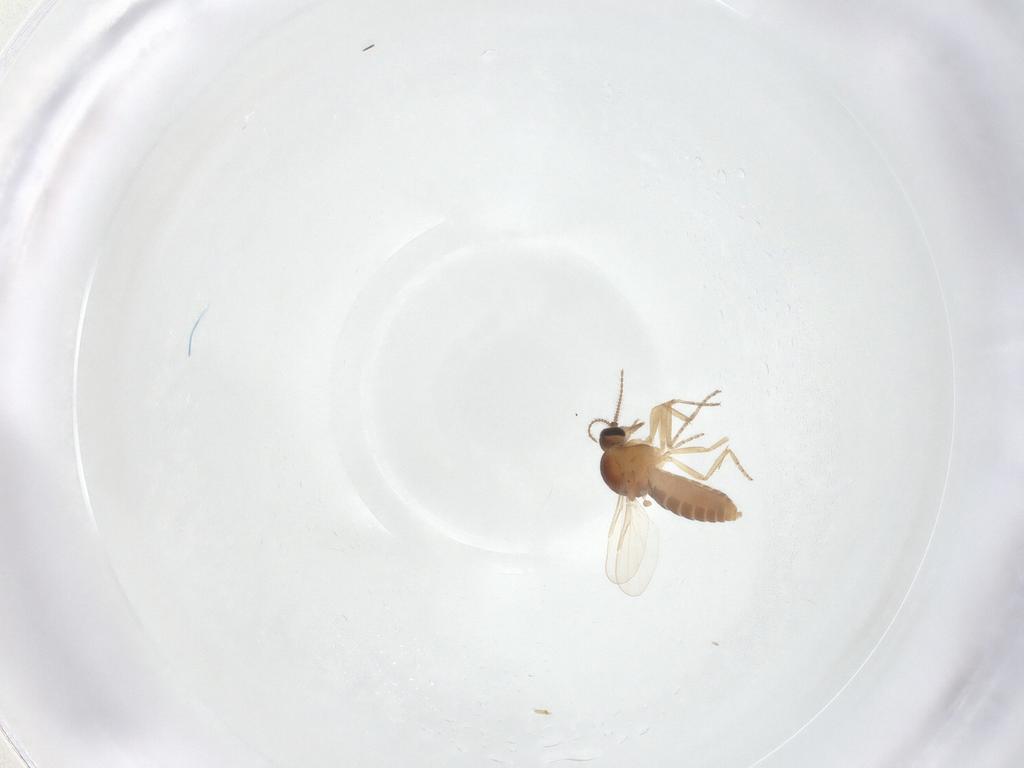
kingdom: Animalia
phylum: Arthropoda
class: Insecta
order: Diptera
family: Ceratopogonidae
